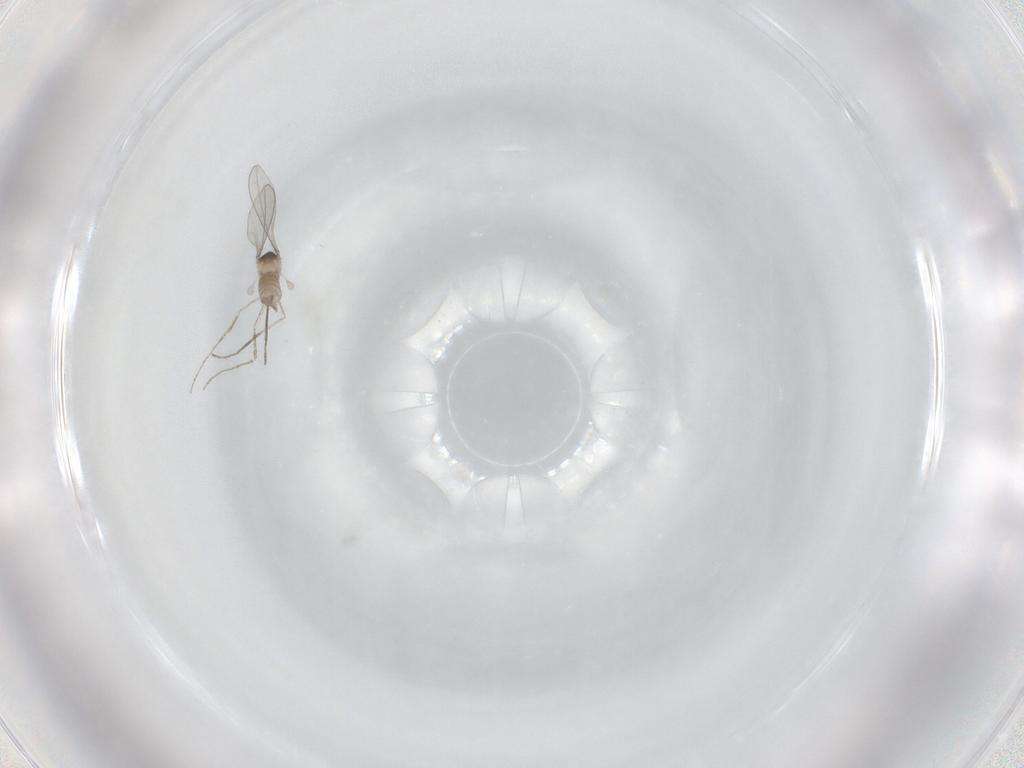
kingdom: Animalia
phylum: Arthropoda
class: Insecta
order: Diptera
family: Cecidomyiidae
